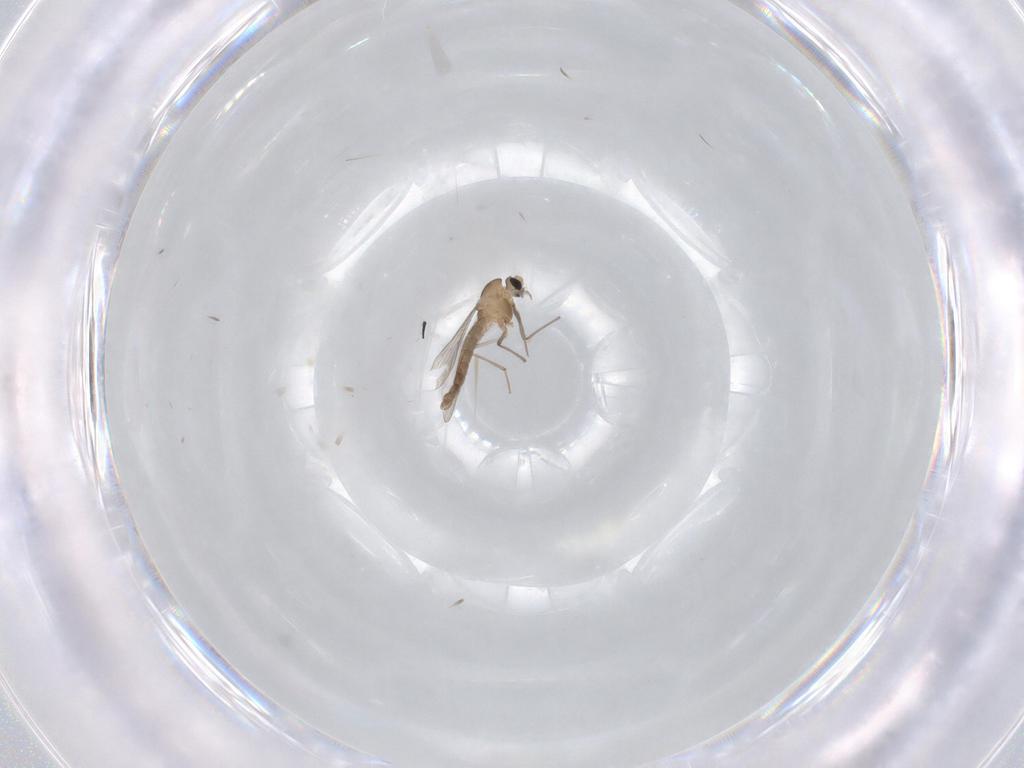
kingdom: Animalia
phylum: Arthropoda
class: Insecta
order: Diptera
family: Chironomidae
